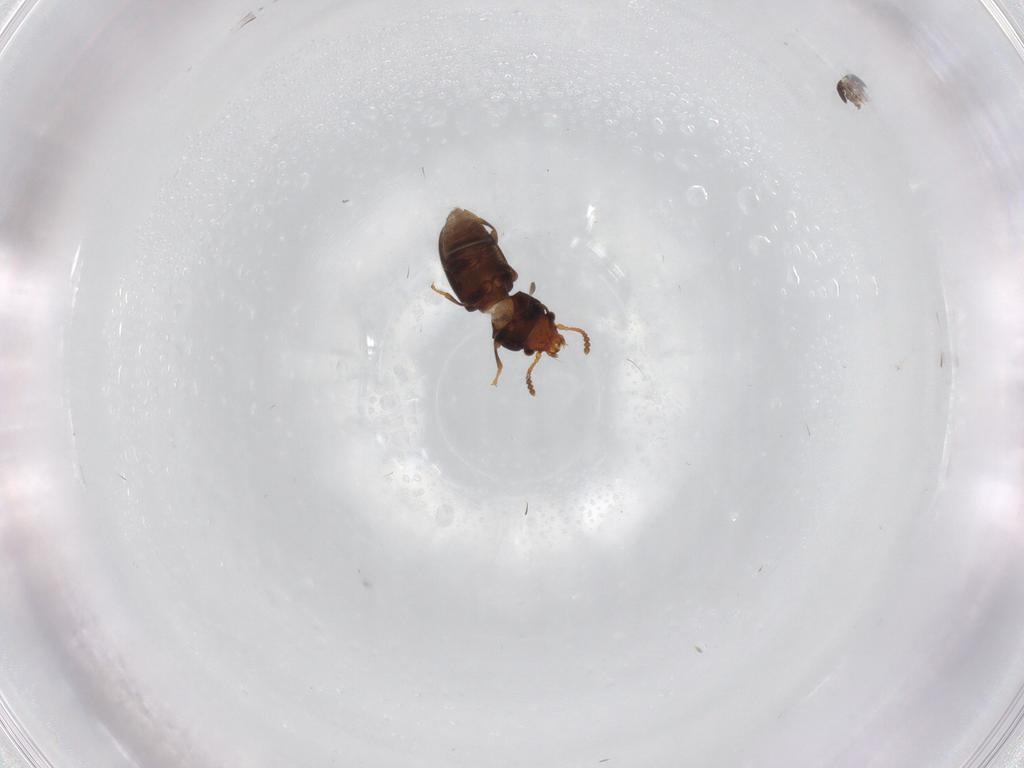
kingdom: Animalia
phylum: Arthropoda
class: Insecta
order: Coleoptera
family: Salpingidae
